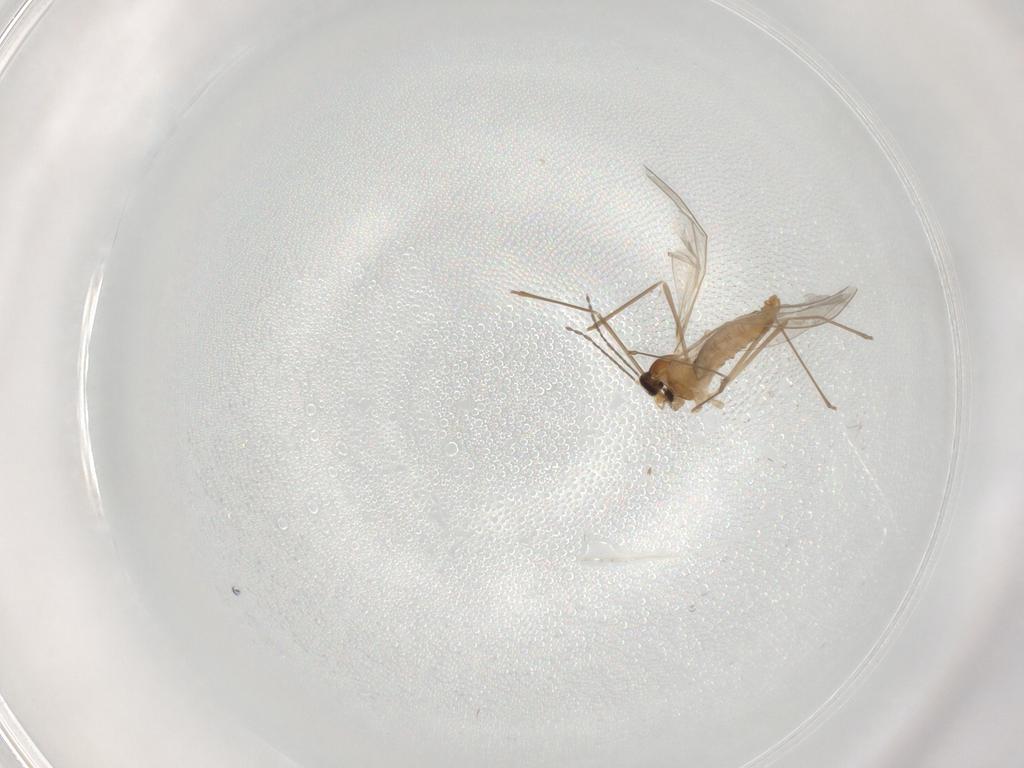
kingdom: Animalia
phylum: Arthropoda
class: Insecta
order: Diptera
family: Cecidomyiidae
